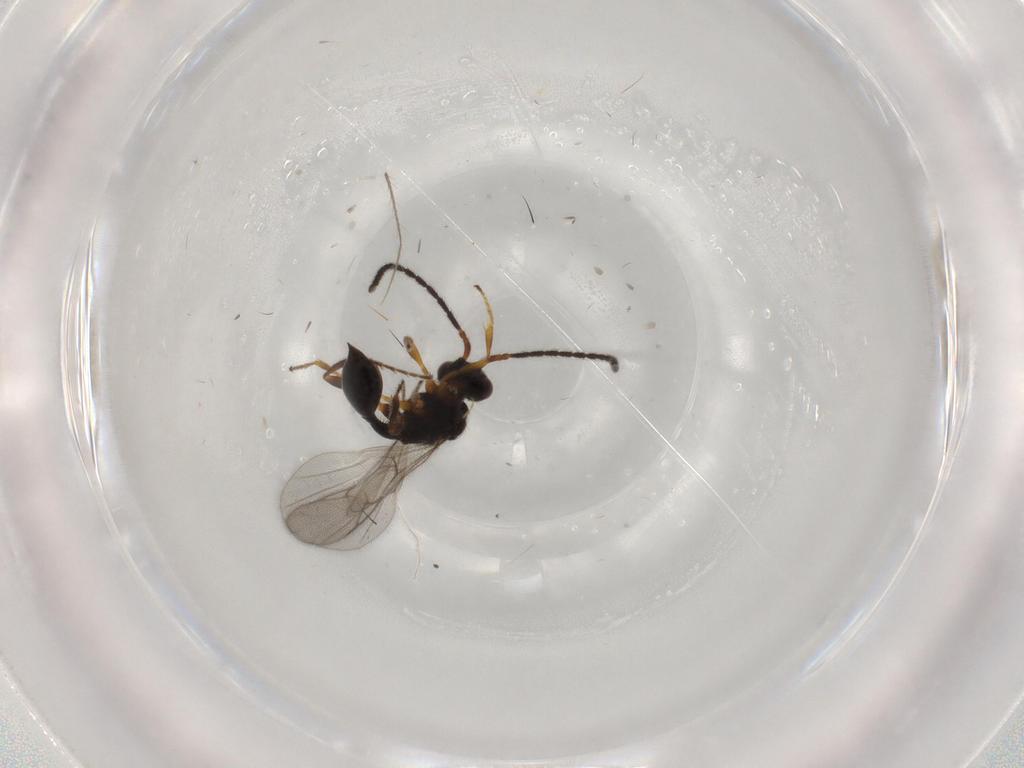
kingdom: Animalia
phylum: Arthropoda
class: Insecta
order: Hymenoptera
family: Diapriidae
